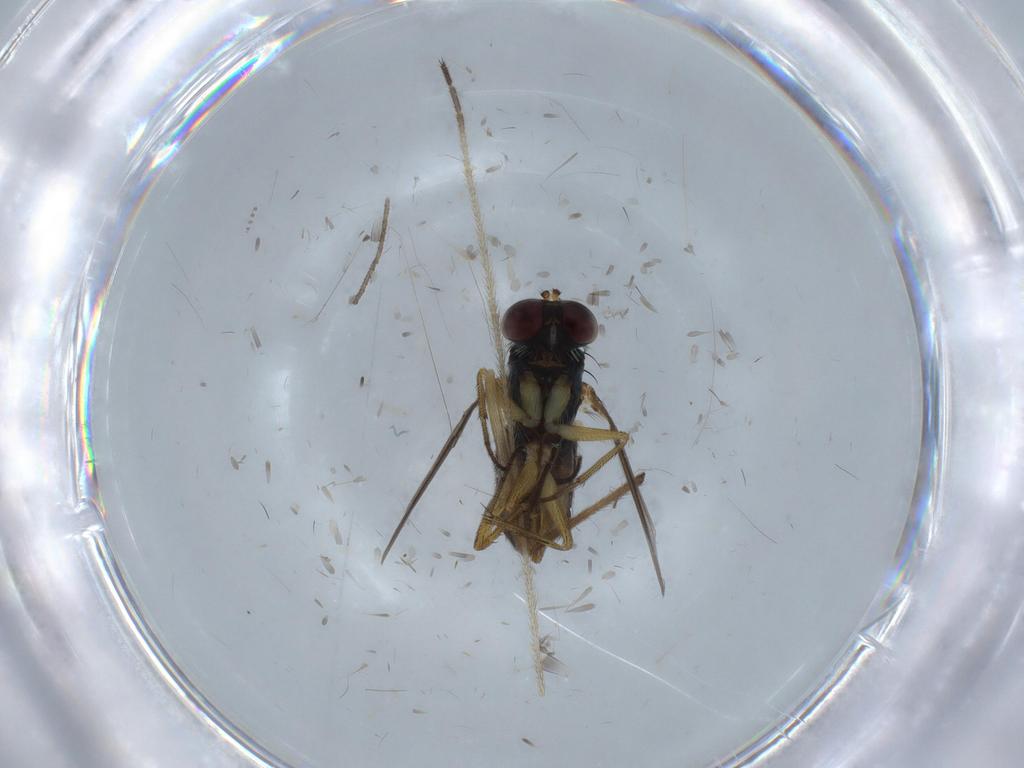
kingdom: Animalia
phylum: Arthropoda
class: Insecta
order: Diptera
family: Chironomidae
